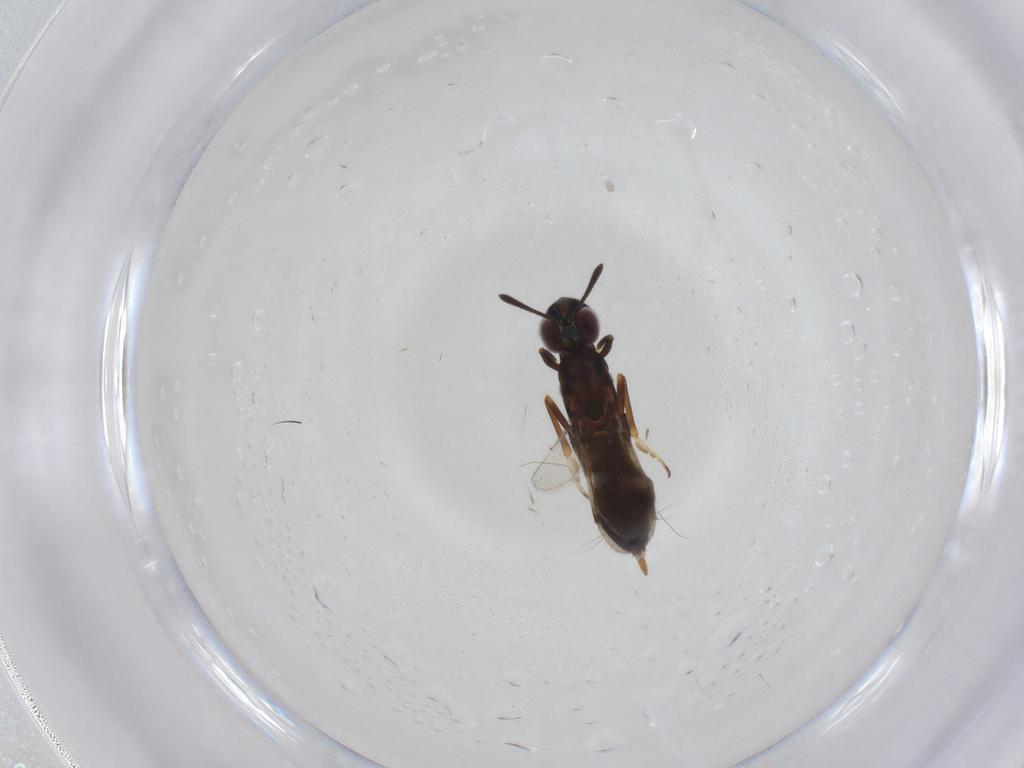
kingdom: Animalia
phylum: Arthropoda
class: Insecta
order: Hymenoptera
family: Eupelmidae
